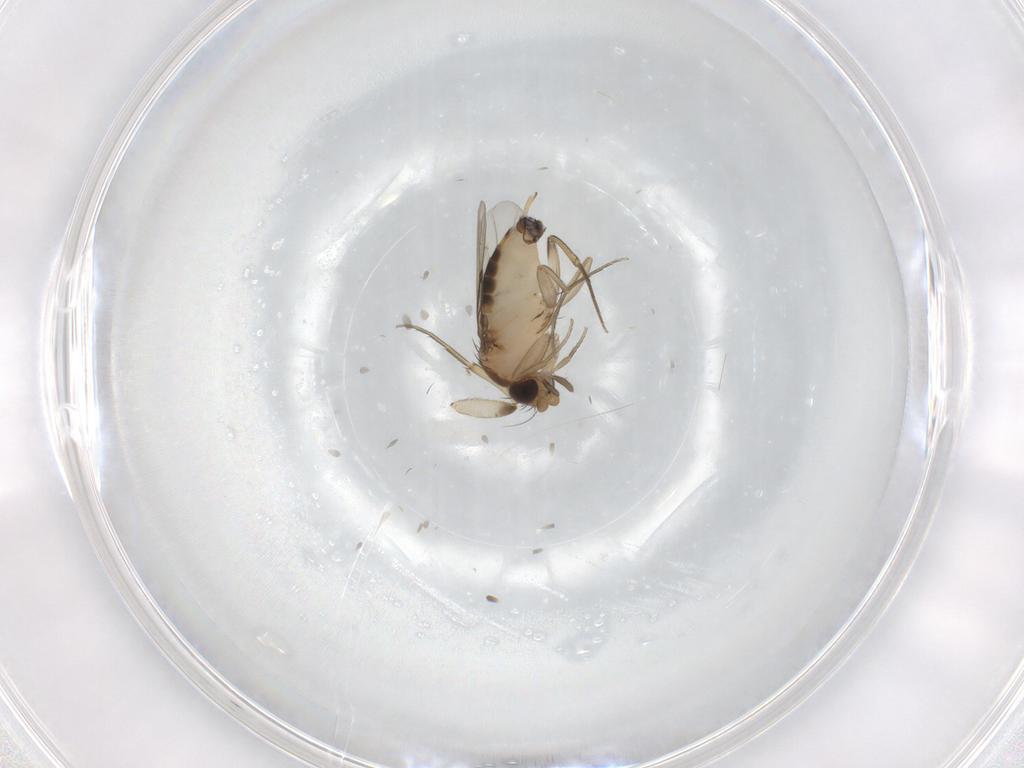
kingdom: Animalia
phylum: Arthropoda
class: Insecta
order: Diptera
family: Phoridae
